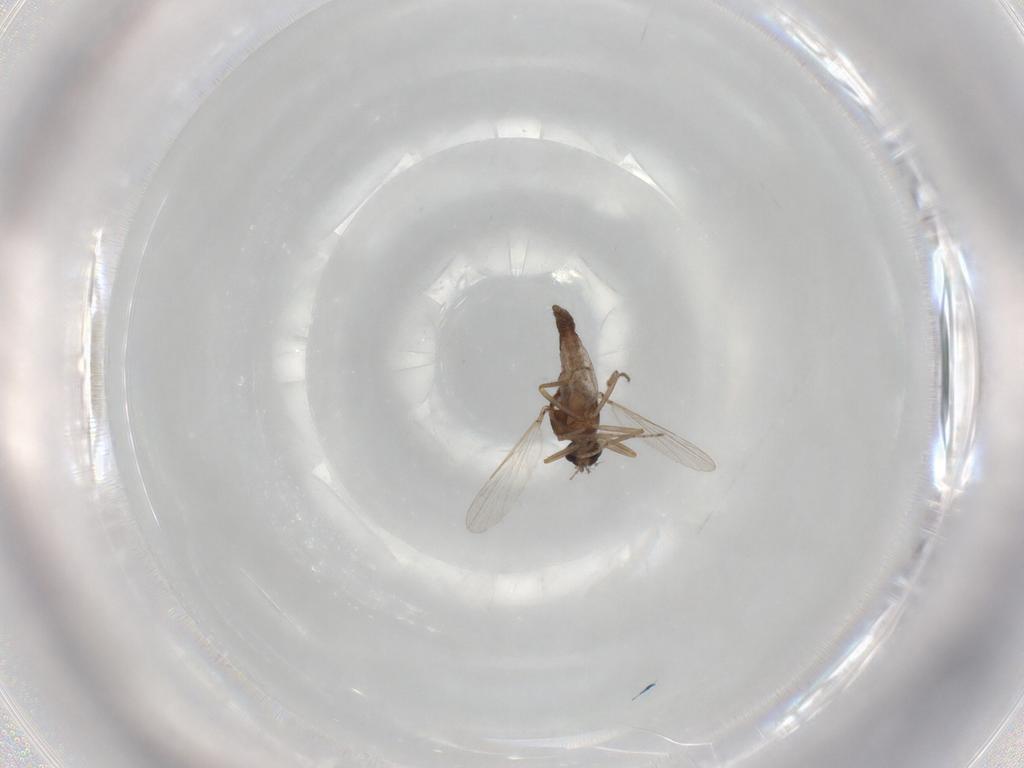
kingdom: Animalia
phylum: Arthropoda
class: Insecta
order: Diptera
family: Ceratopogonidae
